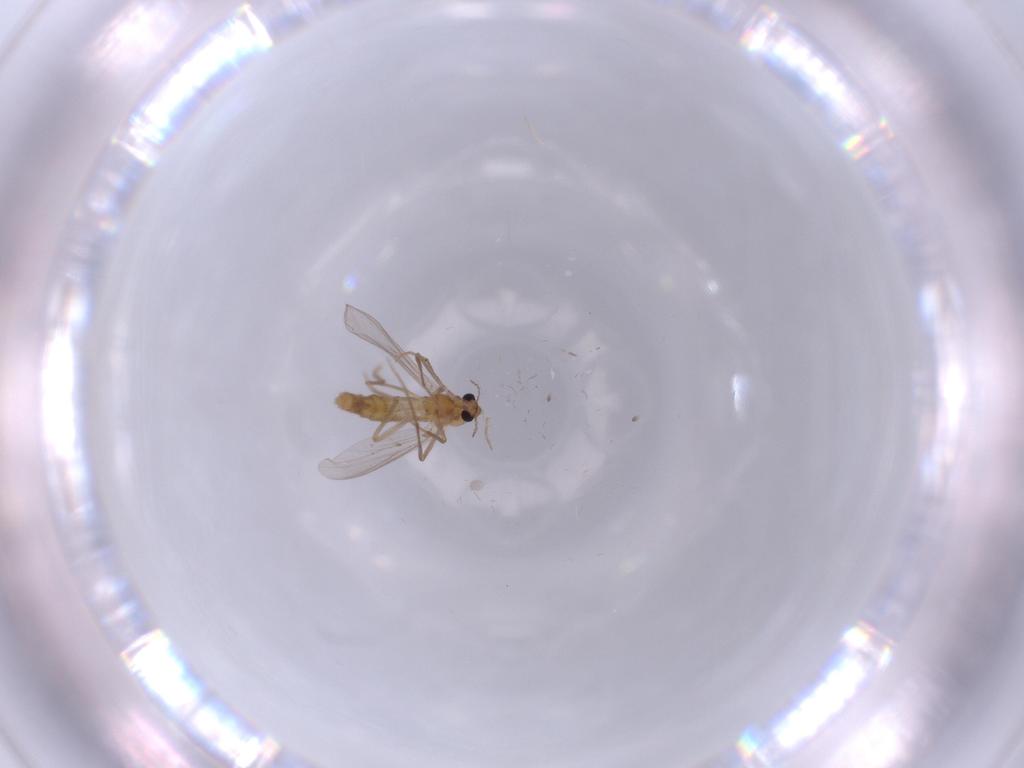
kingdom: Animalia
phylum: Arthropoda
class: Insecta
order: Diptera
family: Chironomidae
